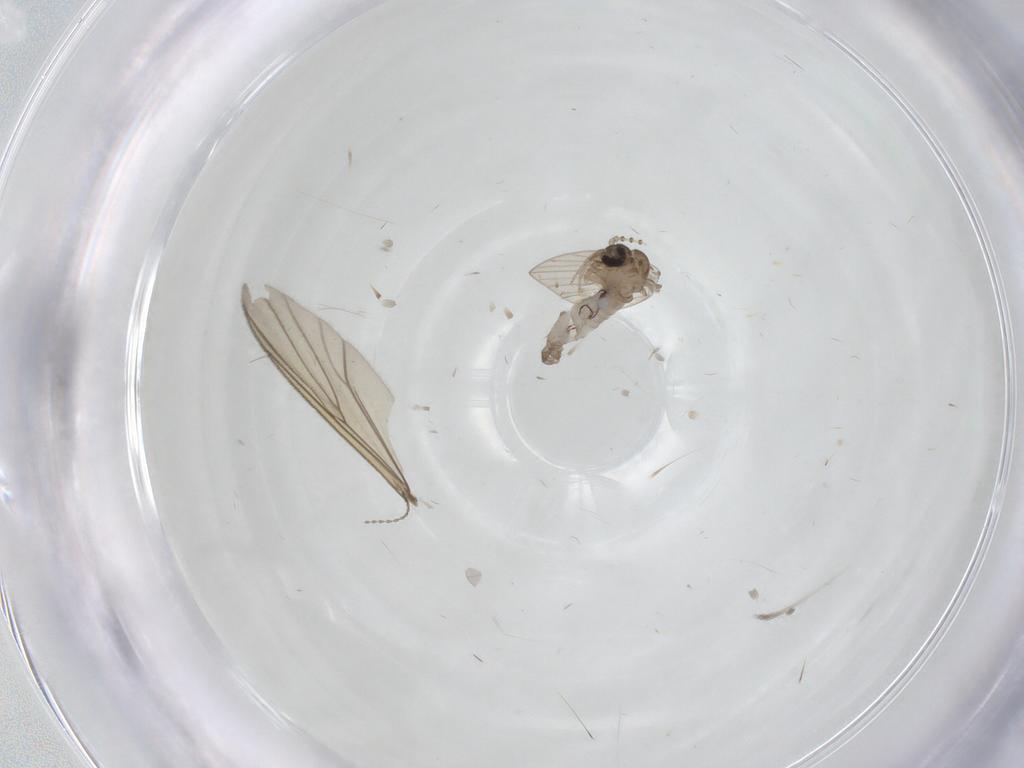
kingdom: Animalia
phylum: Arthropoda
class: Insecta
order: Diptera
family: Psychodidae
